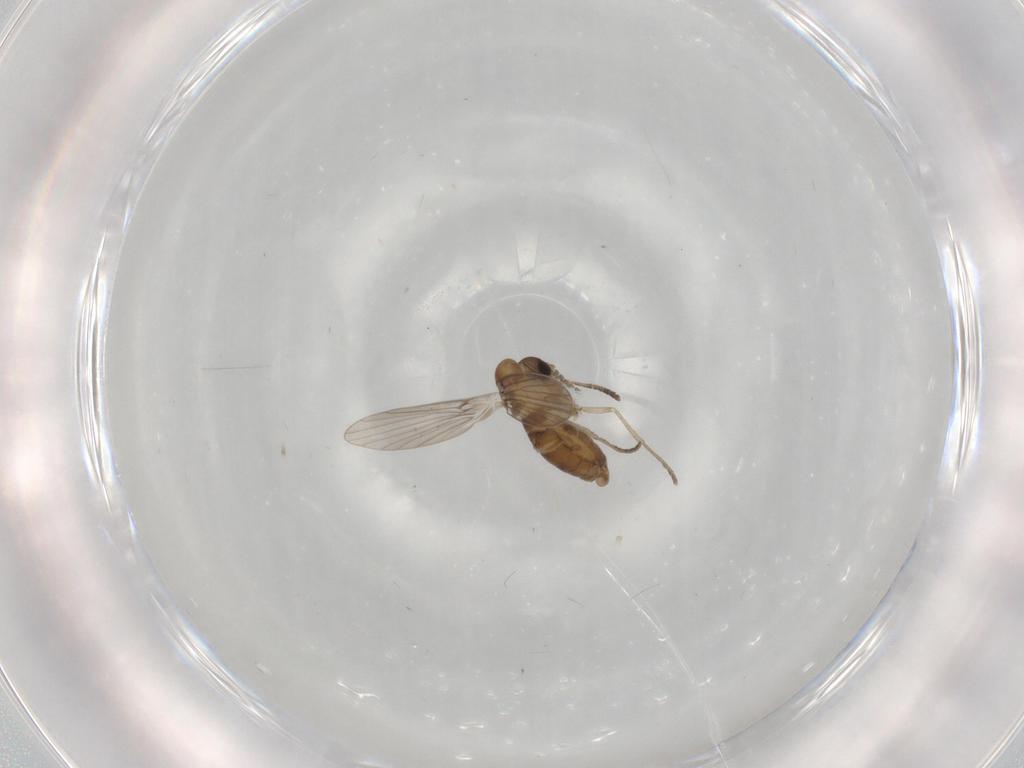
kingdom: Animalia
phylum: Arthropoda
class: Insecta
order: Diptera
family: Psychodidae
